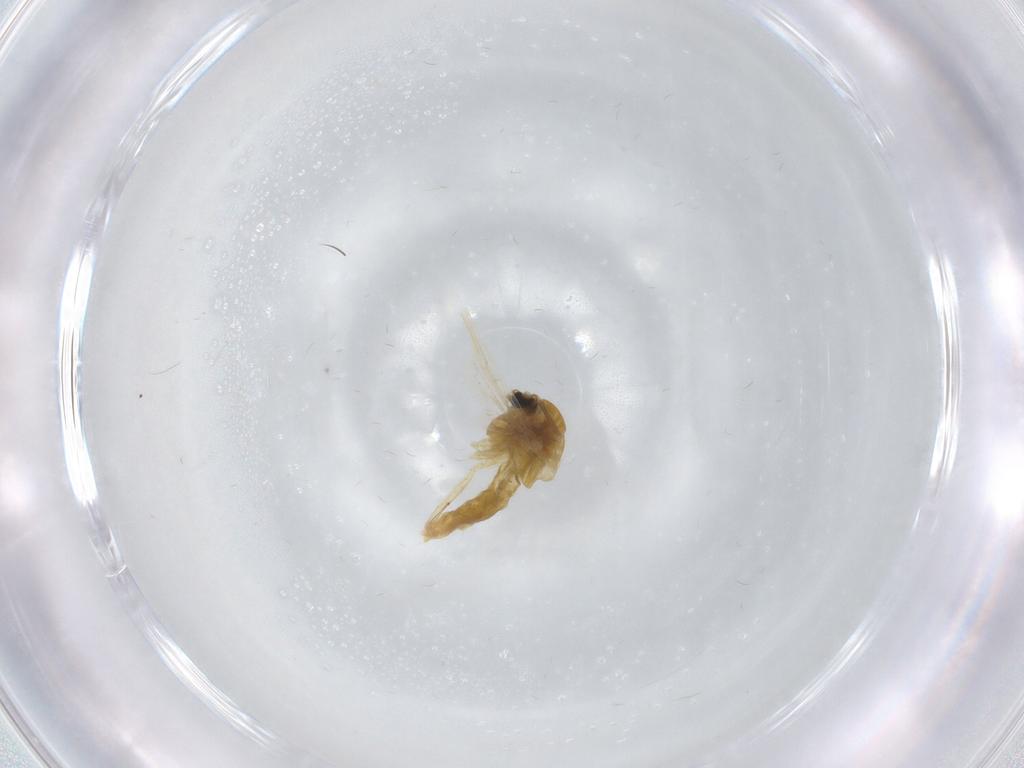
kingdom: Animalia
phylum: Arthropoda
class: Insecta
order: Diptera
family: Chironomidae
